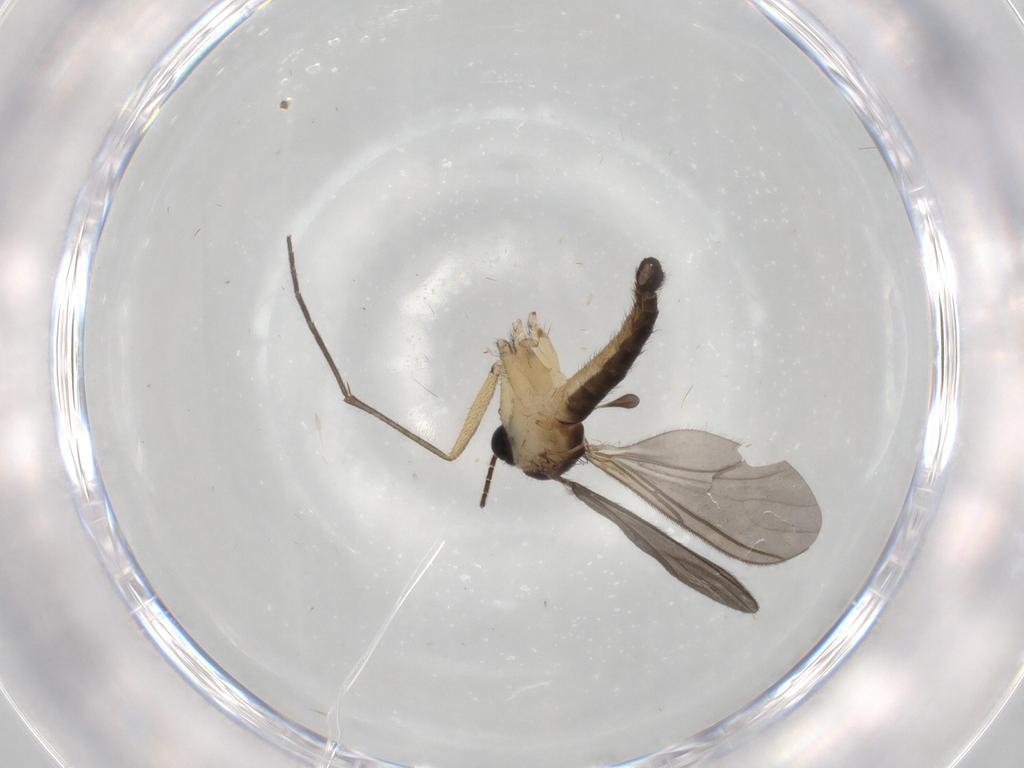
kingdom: Animalia
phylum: Arthropoda
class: Insecta
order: Diptera
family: Sciaridae
